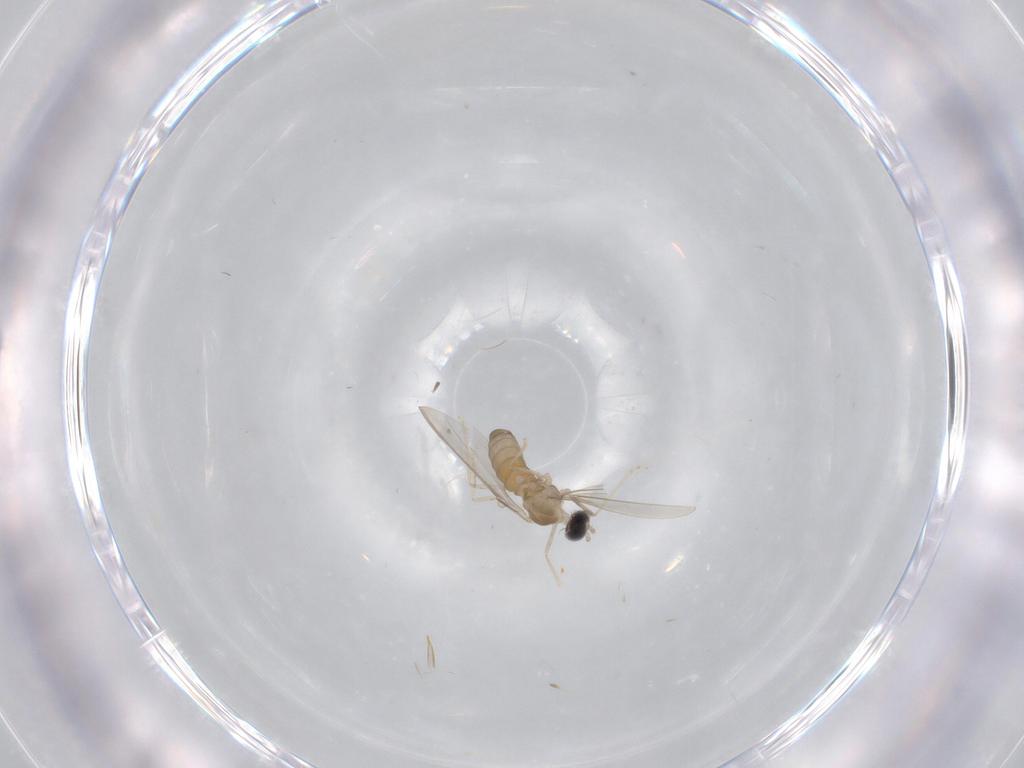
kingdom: Animalia
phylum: Arthropoda
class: Insecta
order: Diptera
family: Cecidomyiidae
